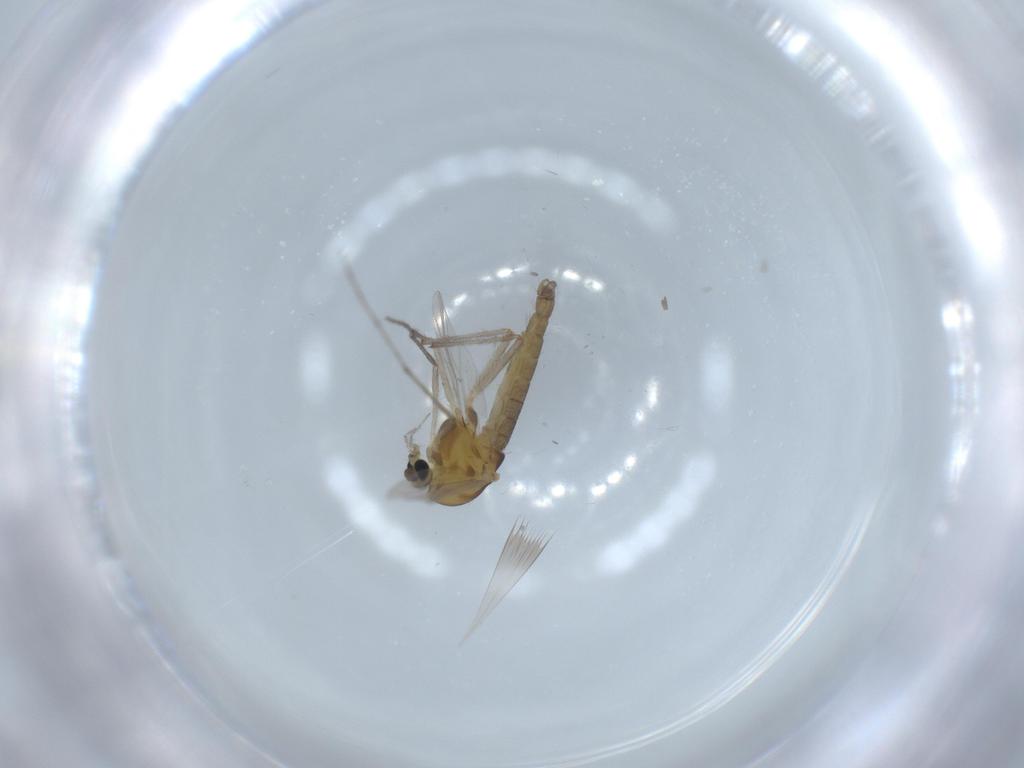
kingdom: Animalia
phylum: Arthropoda
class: Insecta
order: Diptera
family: Chironomidae
